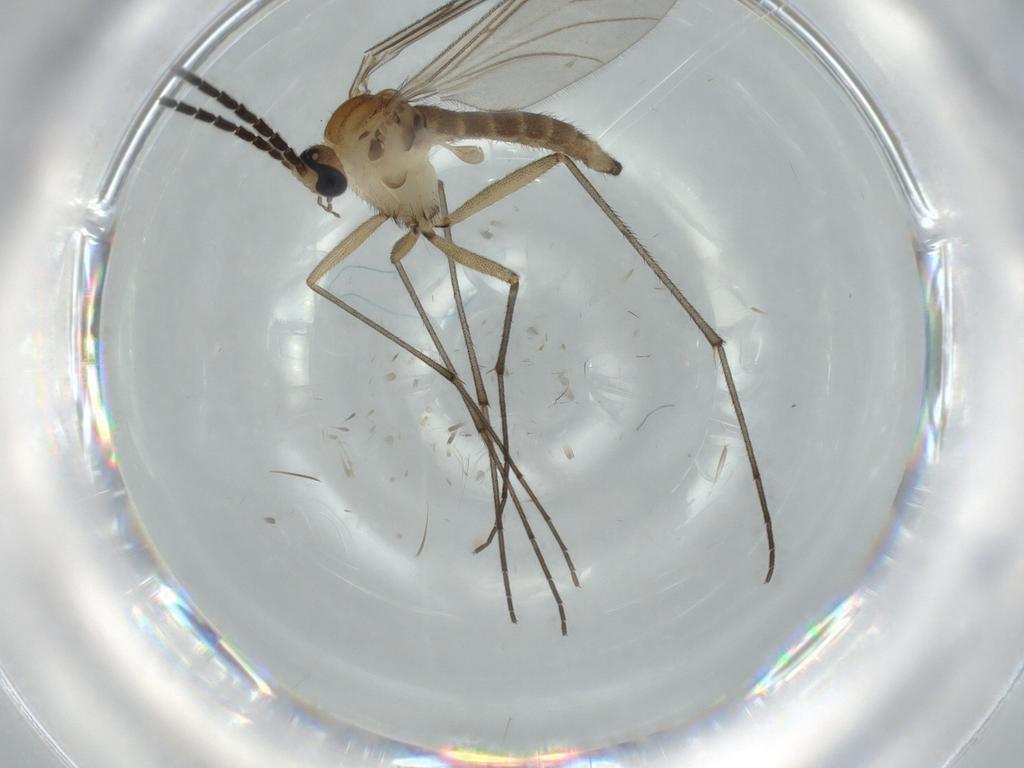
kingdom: Animalia
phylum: Arthropoda
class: Insecta
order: Diptera
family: Sciaridae
